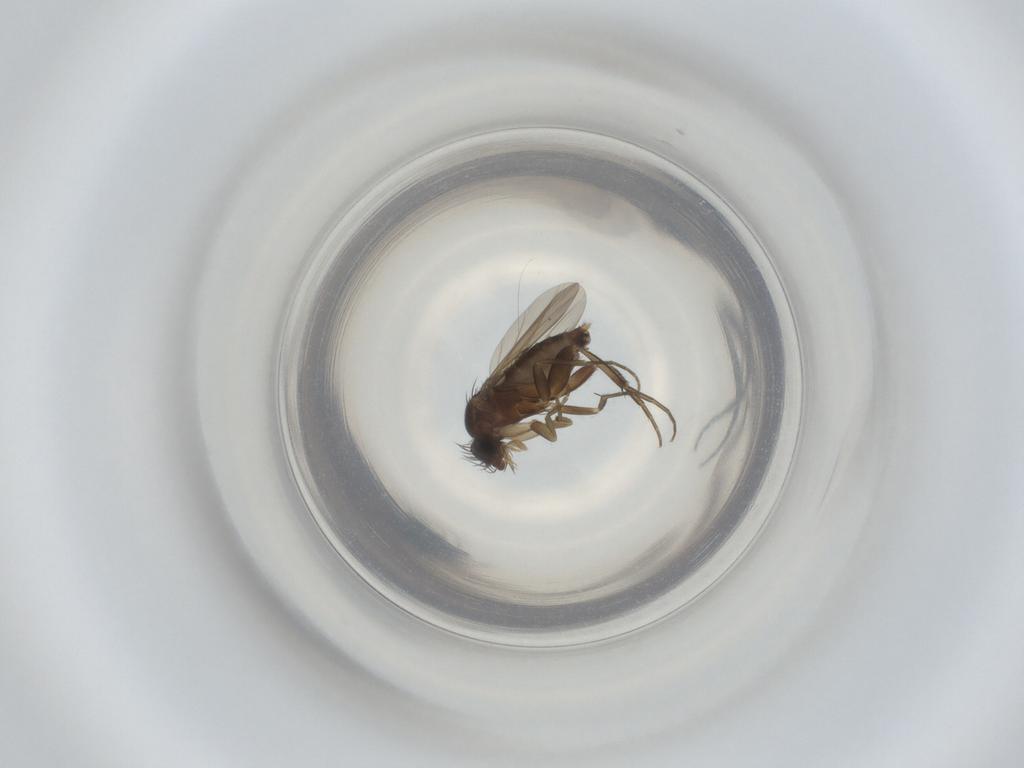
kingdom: Animalia
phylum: Arthropoda
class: Insecta
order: Diptera
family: Phoridae
